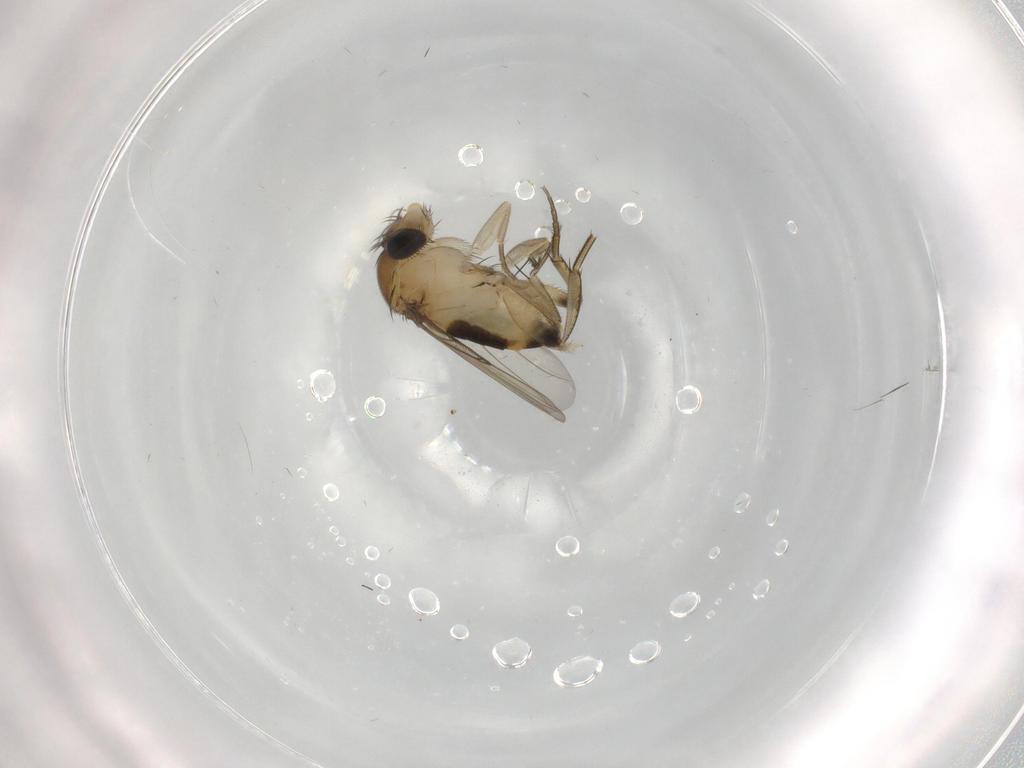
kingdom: Animalia
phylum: Arthropoda
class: Insecta
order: Diptera
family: Phoridae
